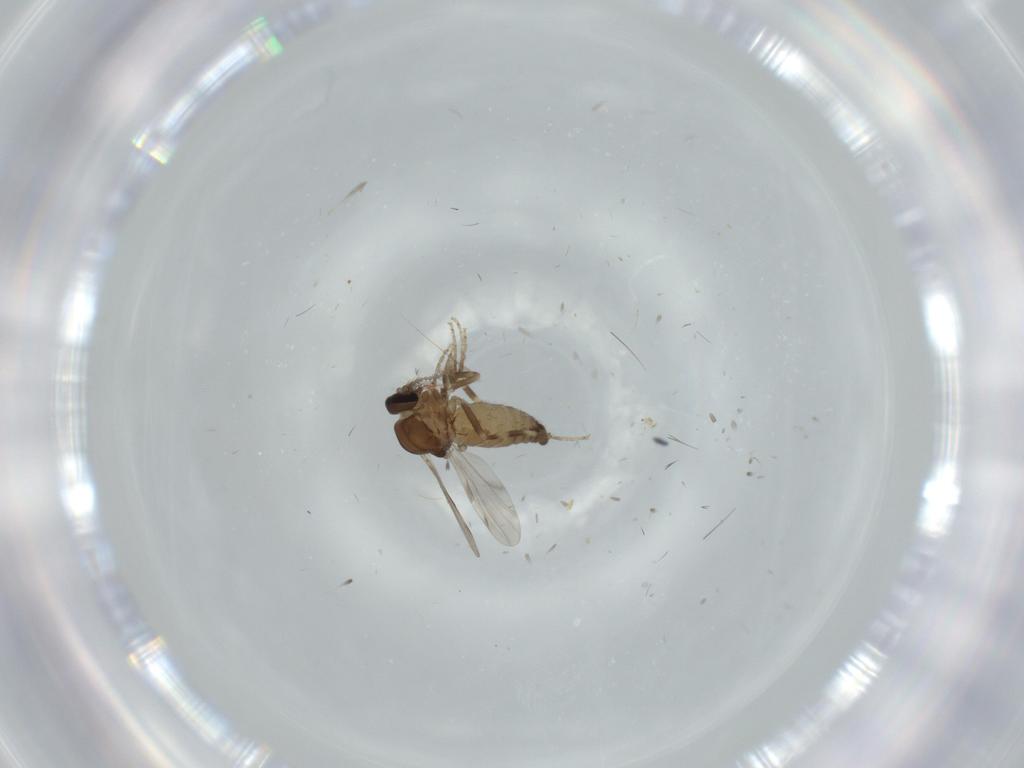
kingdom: Animalia
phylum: Arthropoda
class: Insecta
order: Diptera
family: Ceratopogonidae
